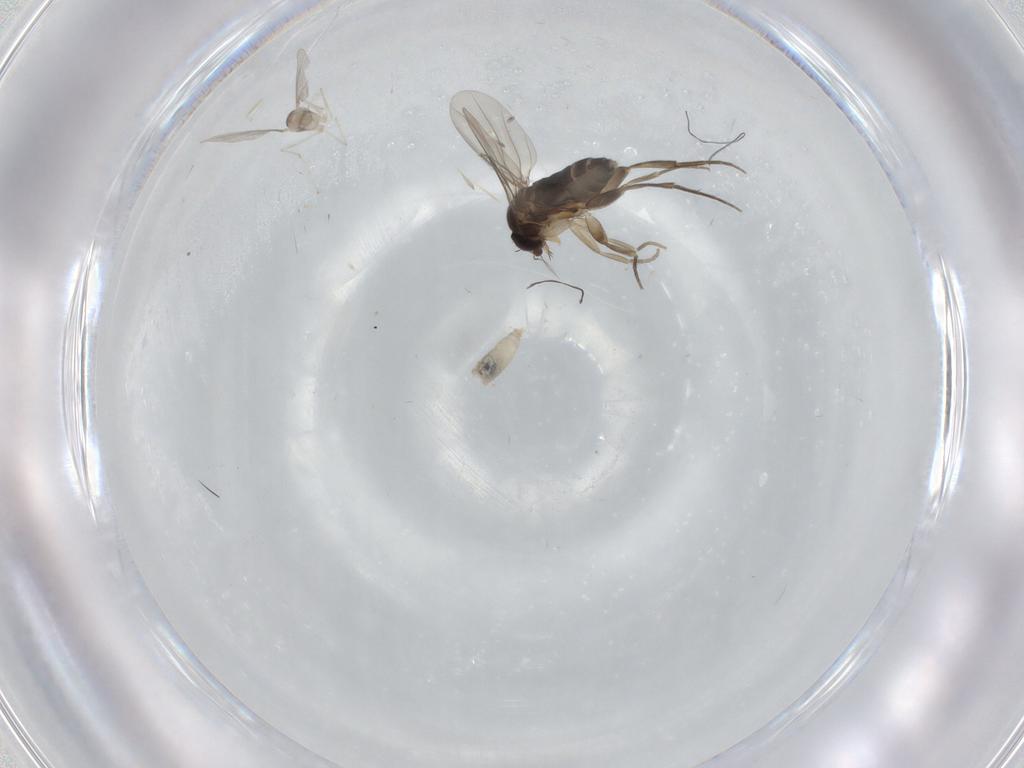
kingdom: Animalia
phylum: Arthropoda
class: Insecta
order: Diptera
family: Phoridae
